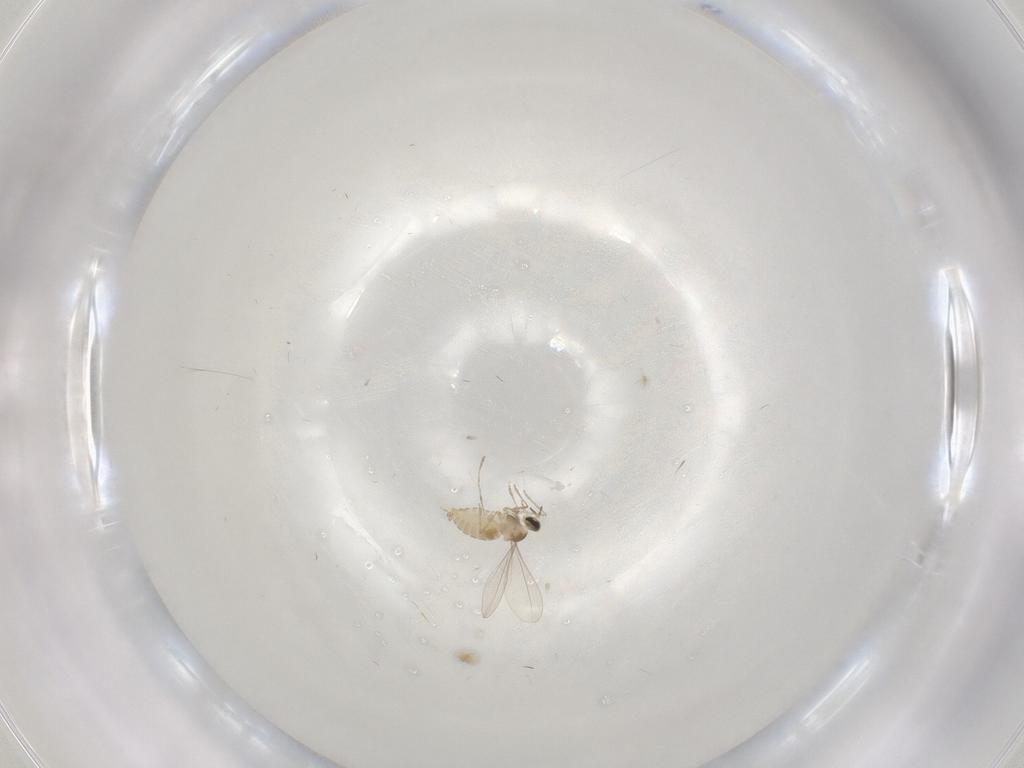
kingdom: Animalia
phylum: Arthropoda
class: Insecta
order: Diptera
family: Cecidomyiidae
